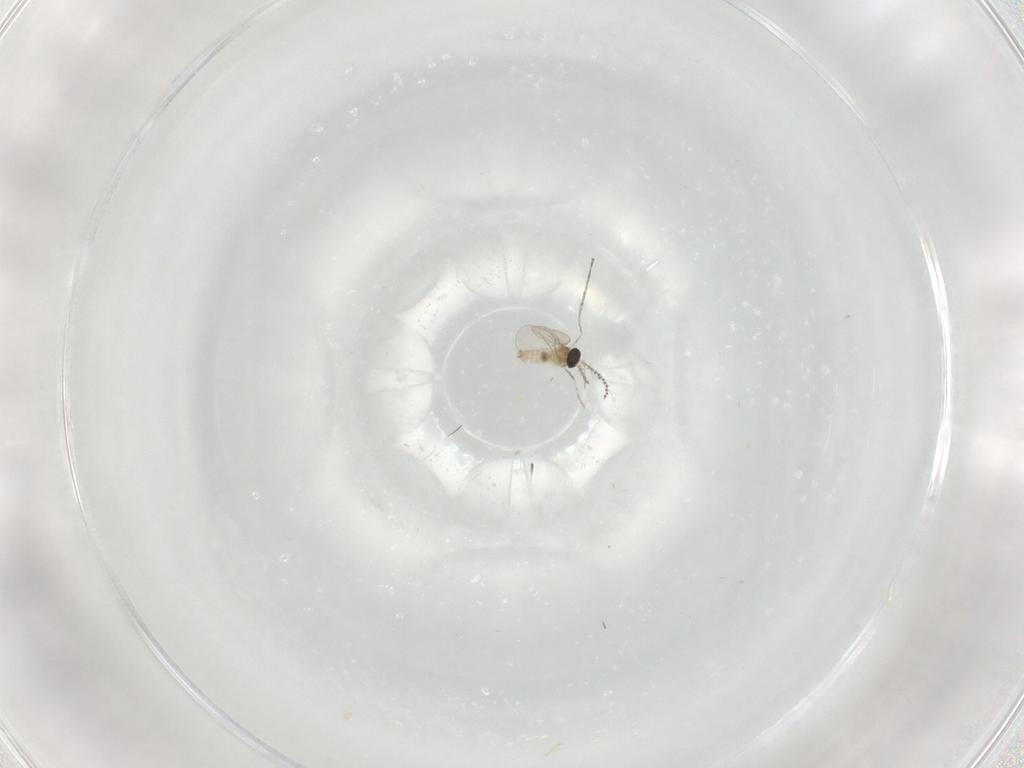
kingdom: Animalia
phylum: Arthropoda
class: Insecta
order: Diptera
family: Cecidomyiidae
